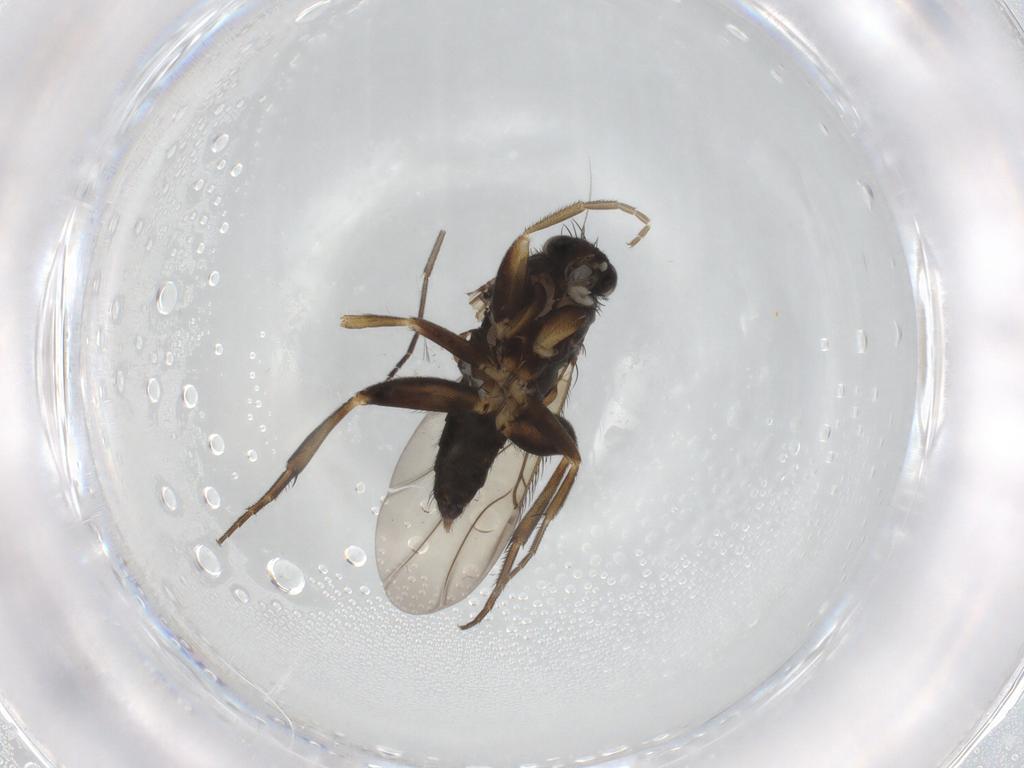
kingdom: Animalia
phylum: Arthropoda
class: Insecta
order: Diptera
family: Phoridae
